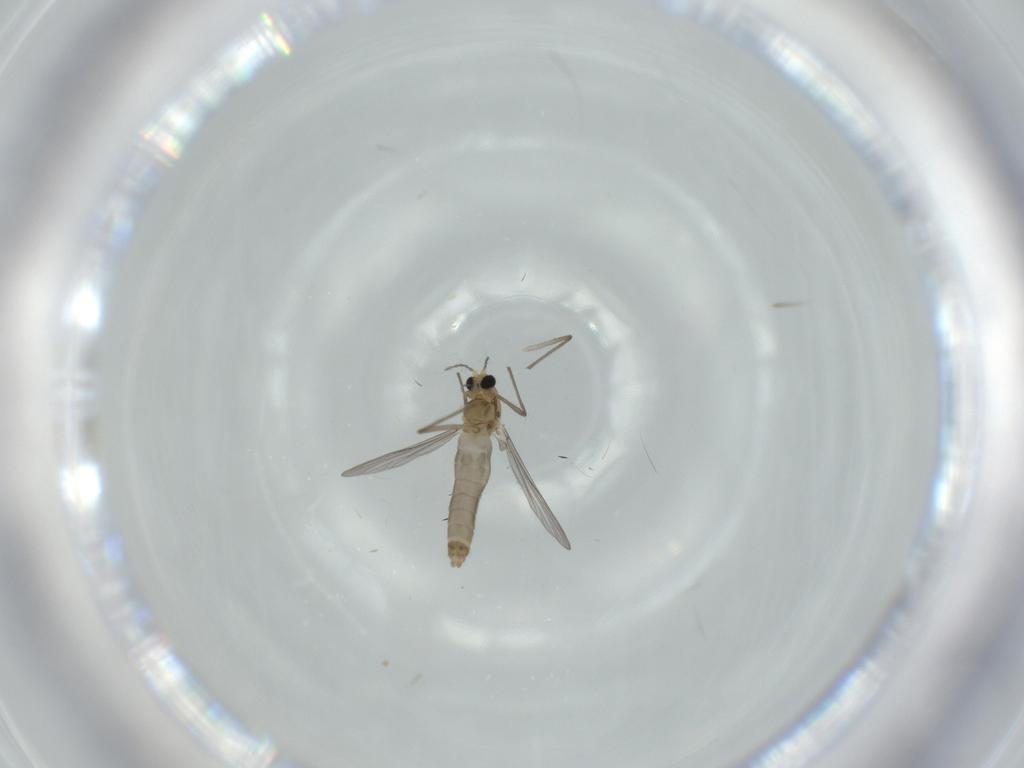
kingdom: Animalia
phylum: Arthropoda
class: Insecta
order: Diptera
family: Chironomidae
